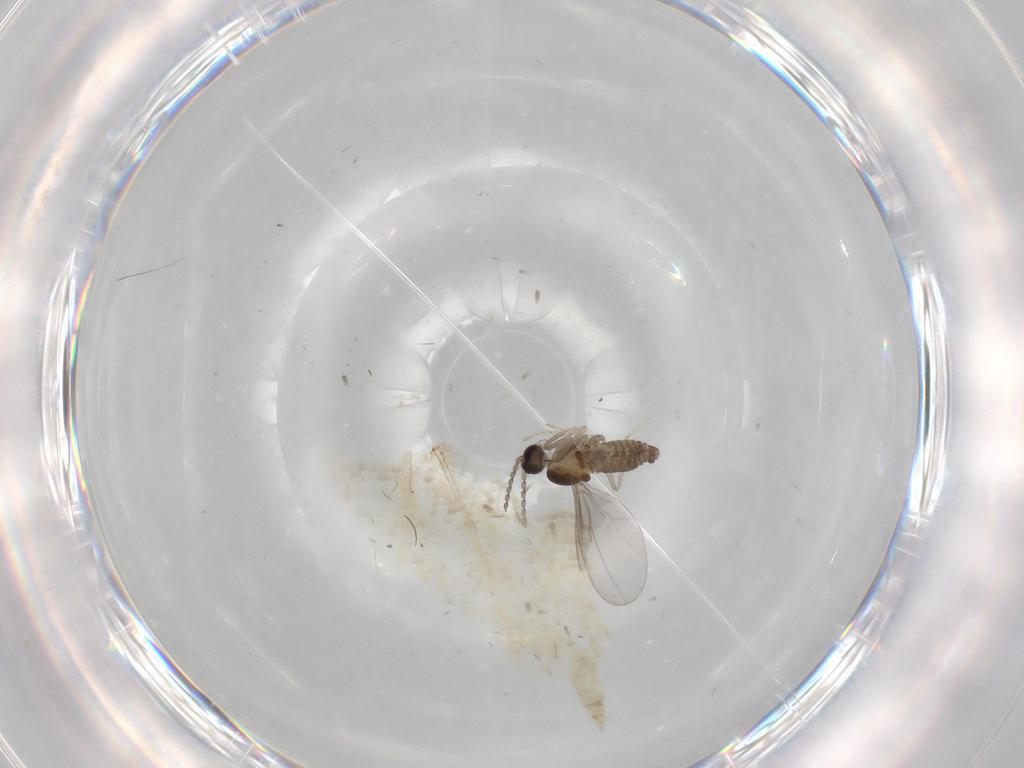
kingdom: Animalia
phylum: Arthropoda
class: Insecta
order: Diptera
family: Cecidomyiidae
